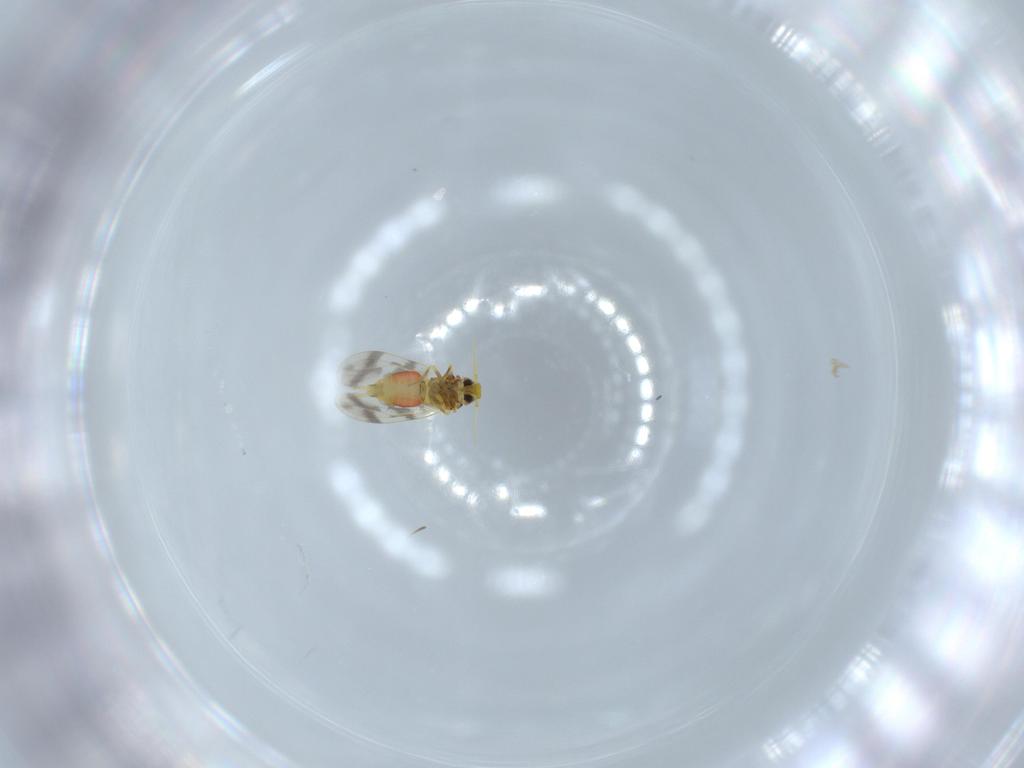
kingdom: Animalia
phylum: Arthropoda
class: Insecta
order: Hemiptera
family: Aleyrodidae
